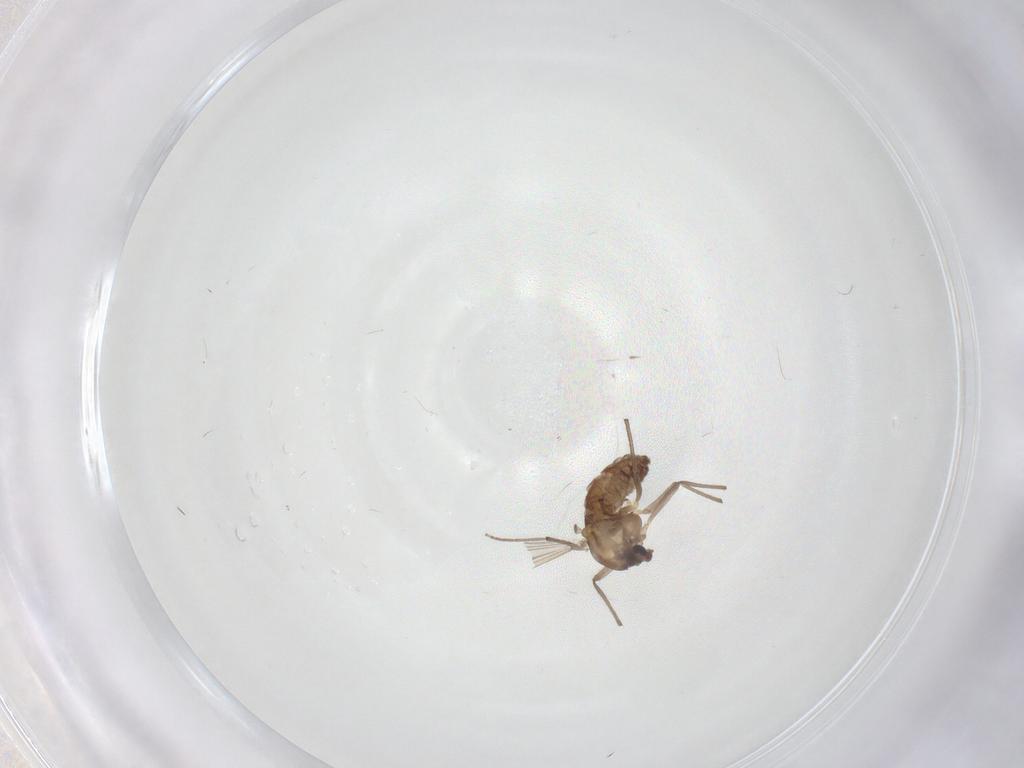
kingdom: Animalia
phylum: Arthropoda
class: Insecta
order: Diptera
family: Chironomidae
